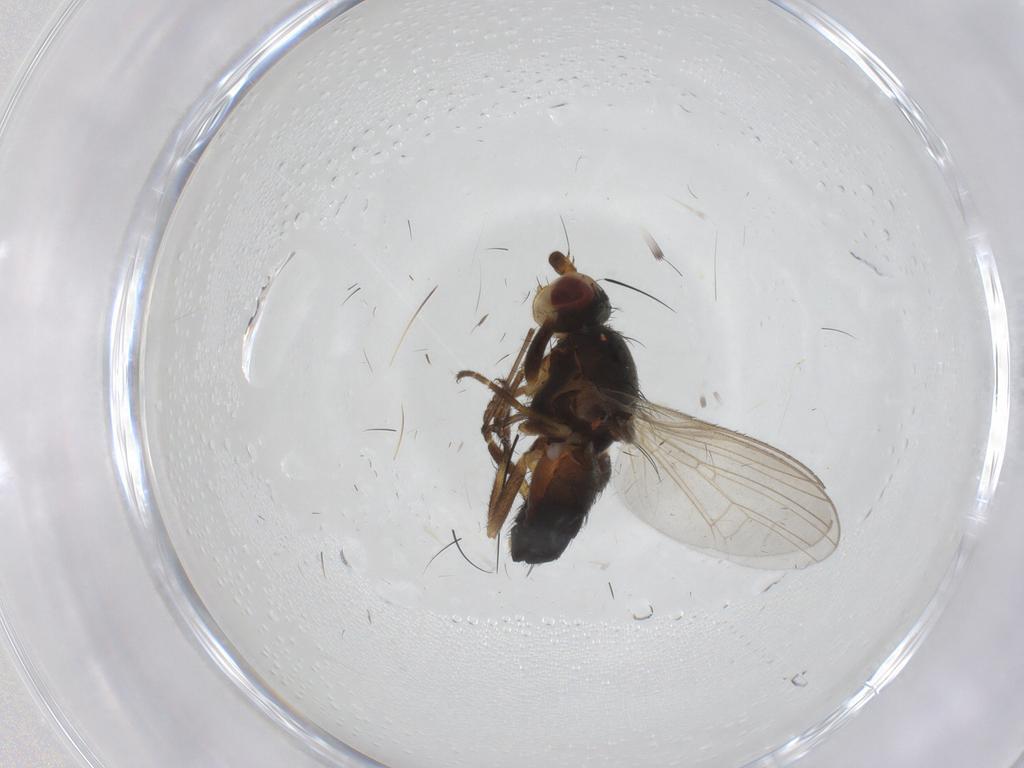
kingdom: Animalia
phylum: Arthropoda
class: Insecta
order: Diptera
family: Heleomyzidae
